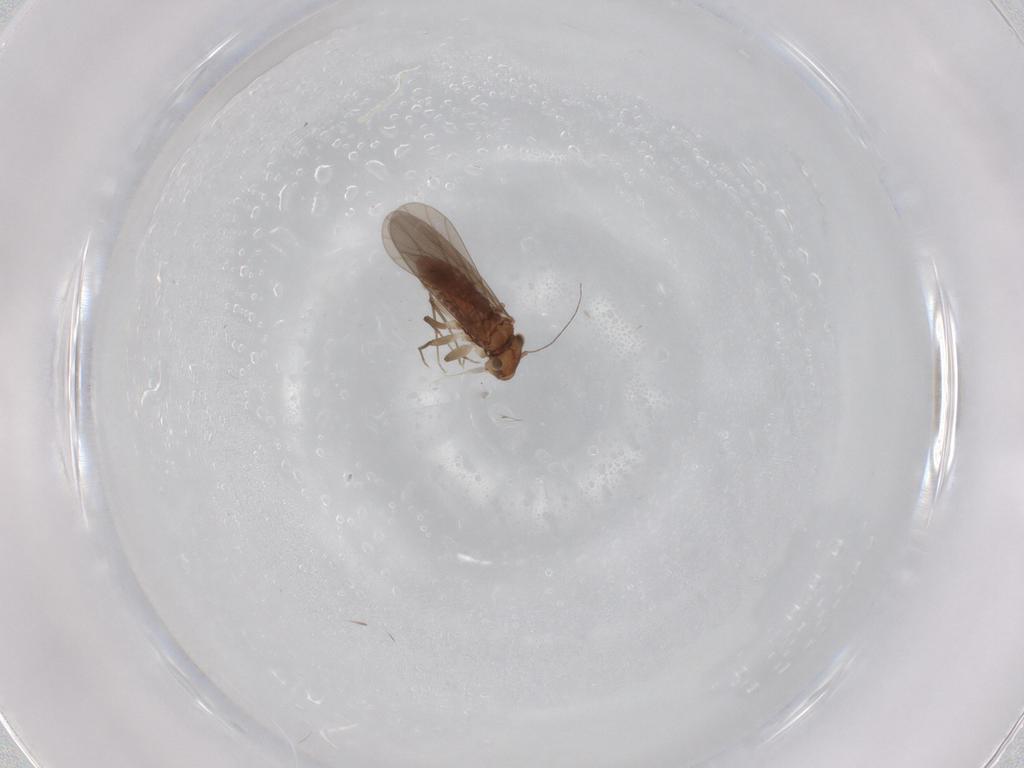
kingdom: Animalia
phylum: Arthropoda
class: Insecta
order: Psocodea
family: Lepidopsocidae
